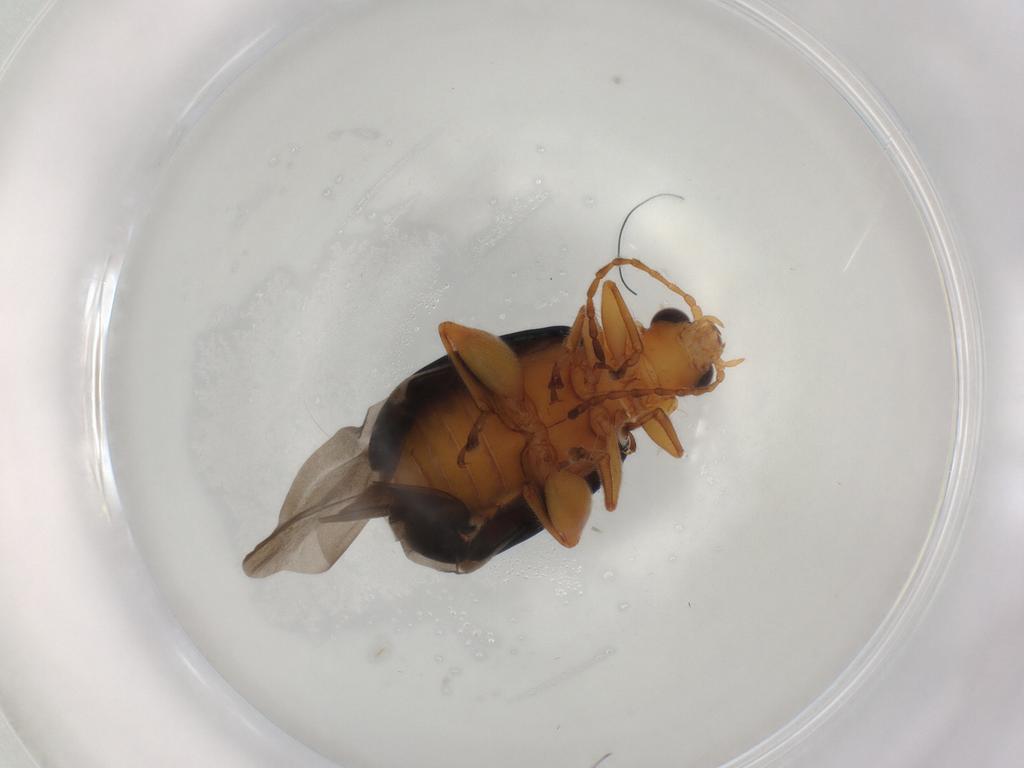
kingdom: Animalia
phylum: Arthropoda
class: Insecta
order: Coleoptera
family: Chrysomelidae
